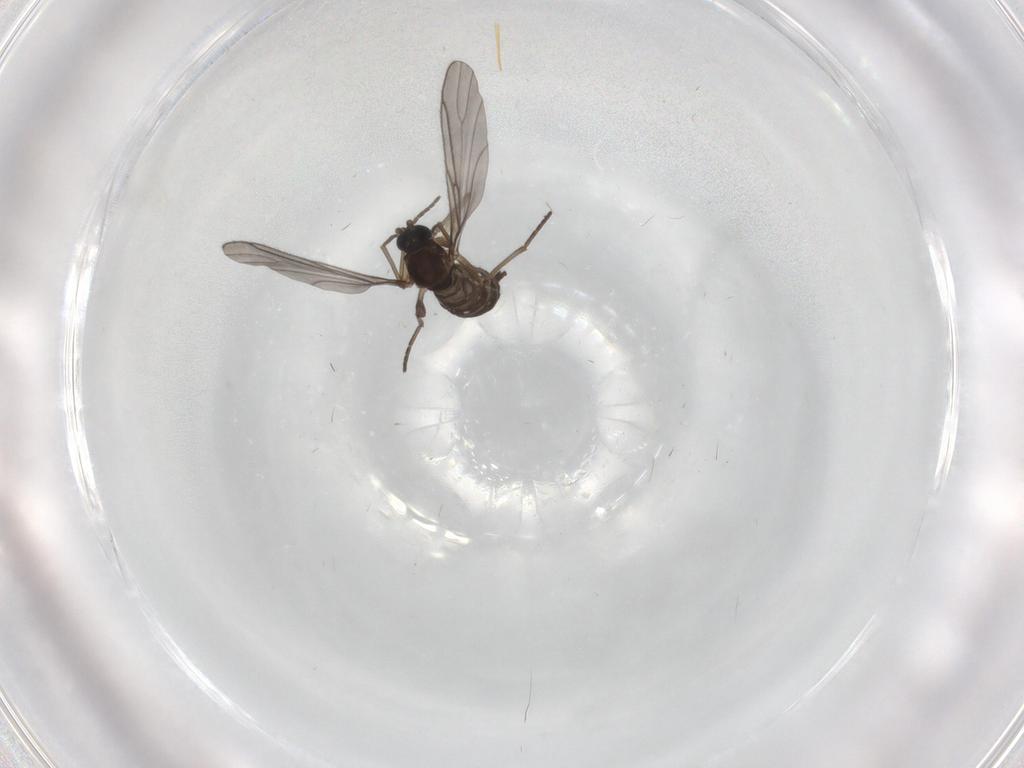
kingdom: Animalia
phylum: Arthropoda
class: Insecta
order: Diptera
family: Sciaridae
